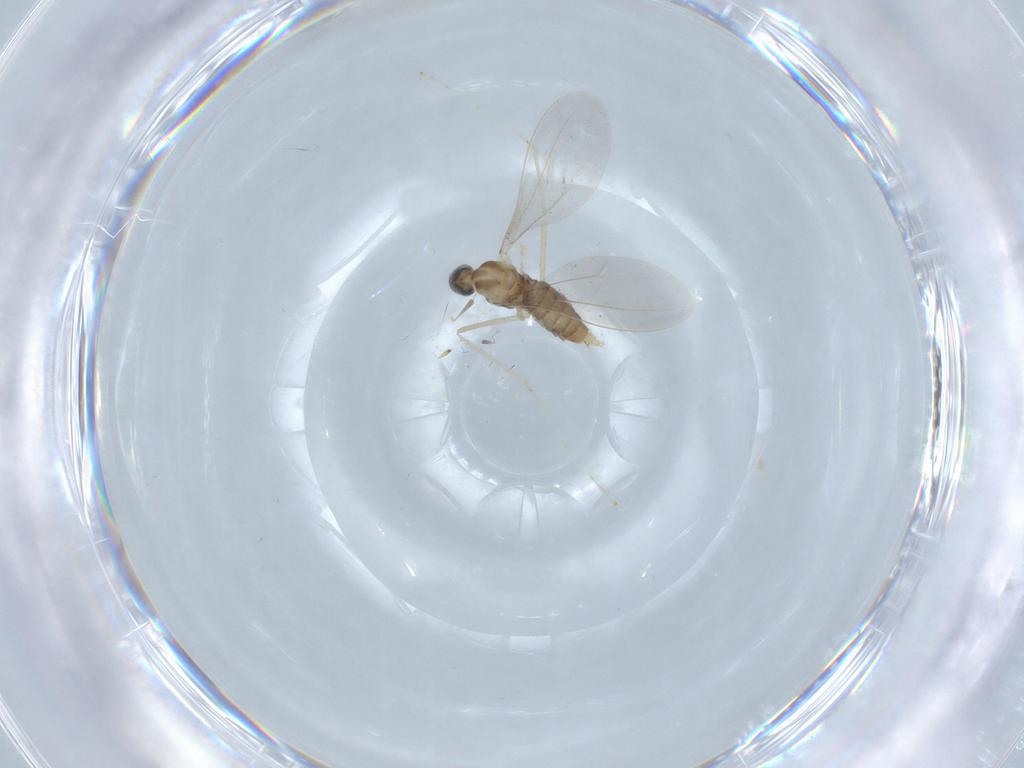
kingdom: Animalia
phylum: Arthropoda
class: Insecta
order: Diptera
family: Cecidomyiidae
